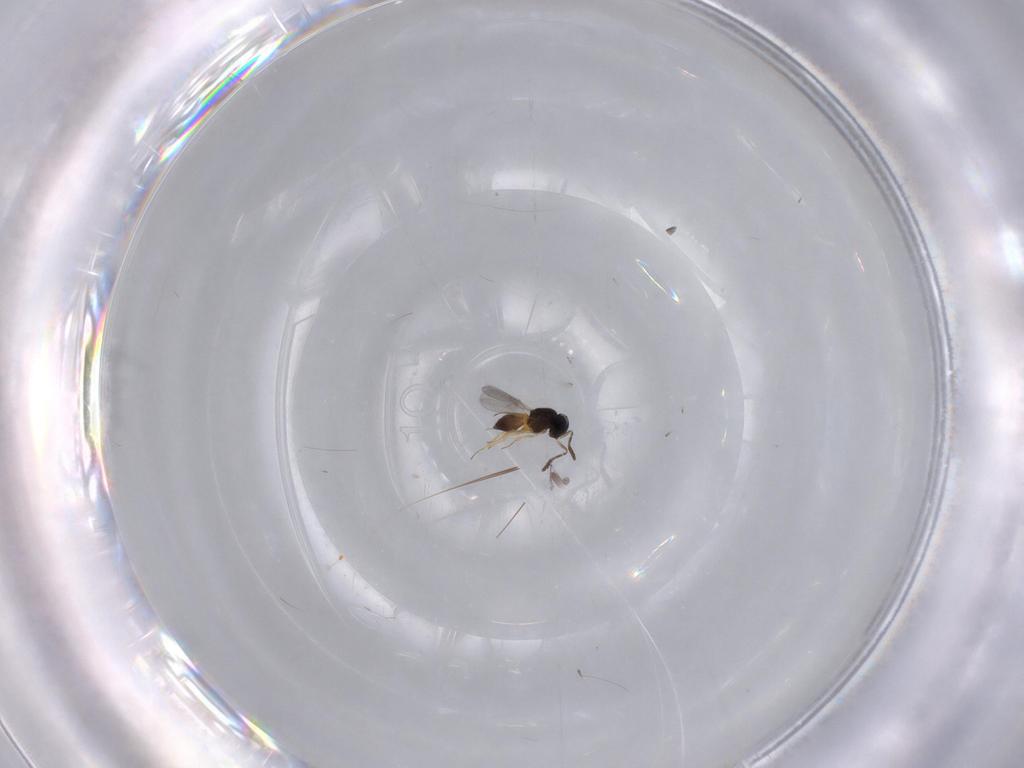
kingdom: Animalia
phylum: Arthropoda
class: Insecta
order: Hymenoptera
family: Scelionidae
